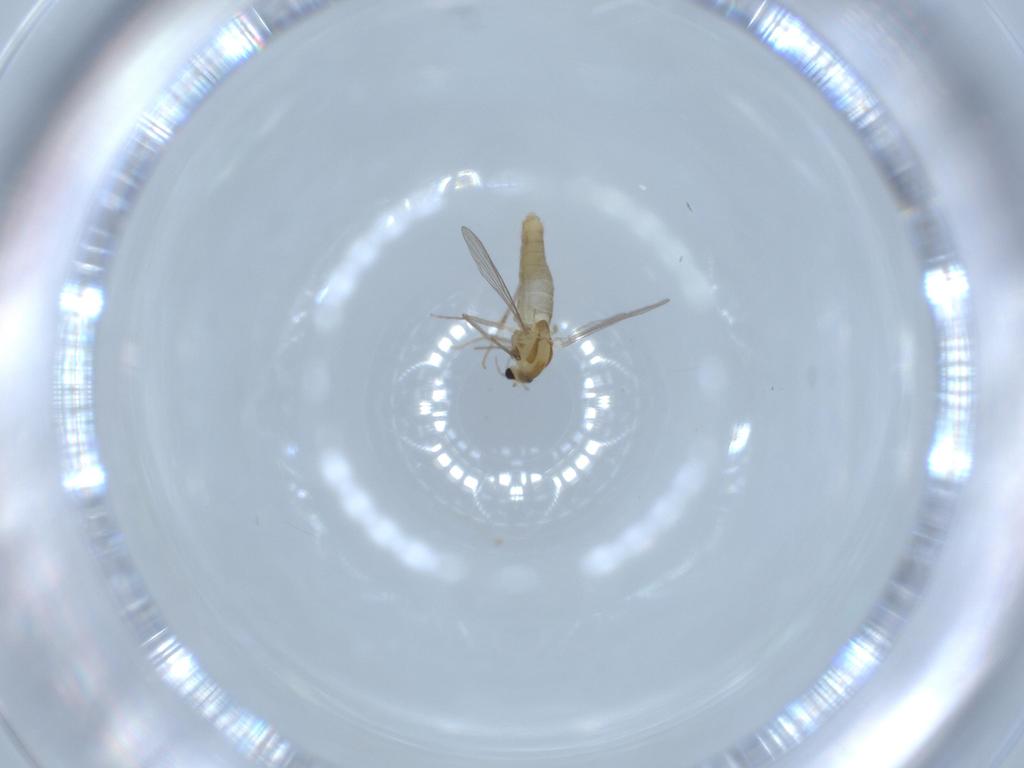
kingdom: Animalia
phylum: Arthropoda
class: Insecta
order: Diptera
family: Chironomidae
